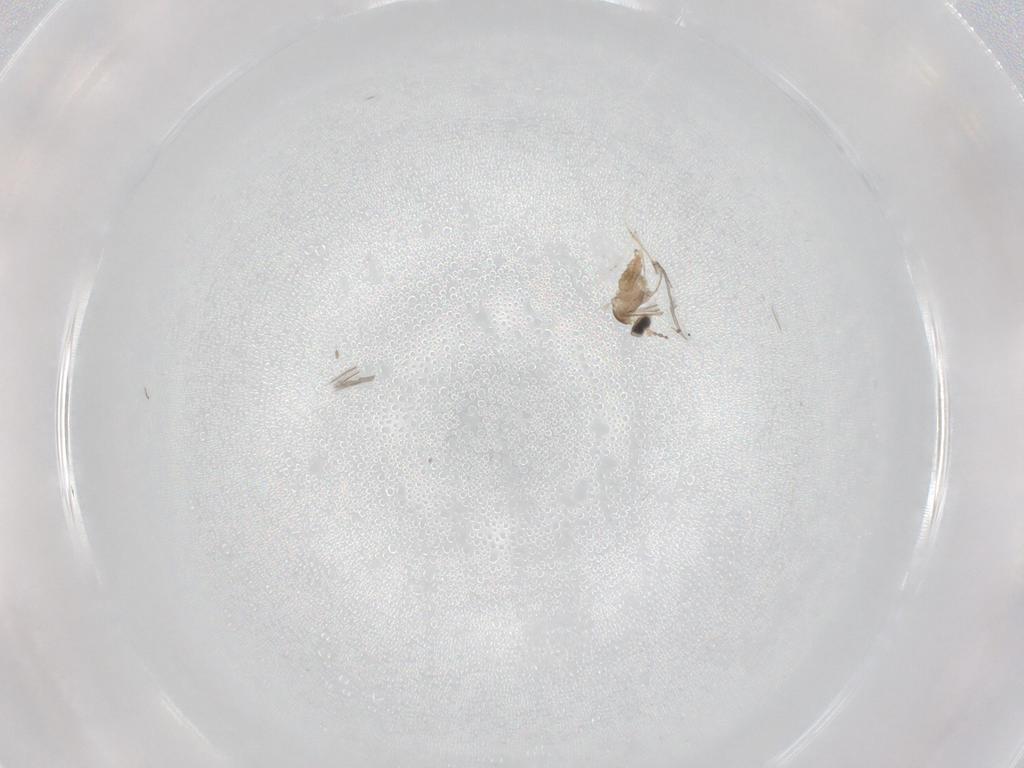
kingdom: Animalia
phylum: Arthropoda
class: Insecta
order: Diptera
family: Cecidomyiidae
